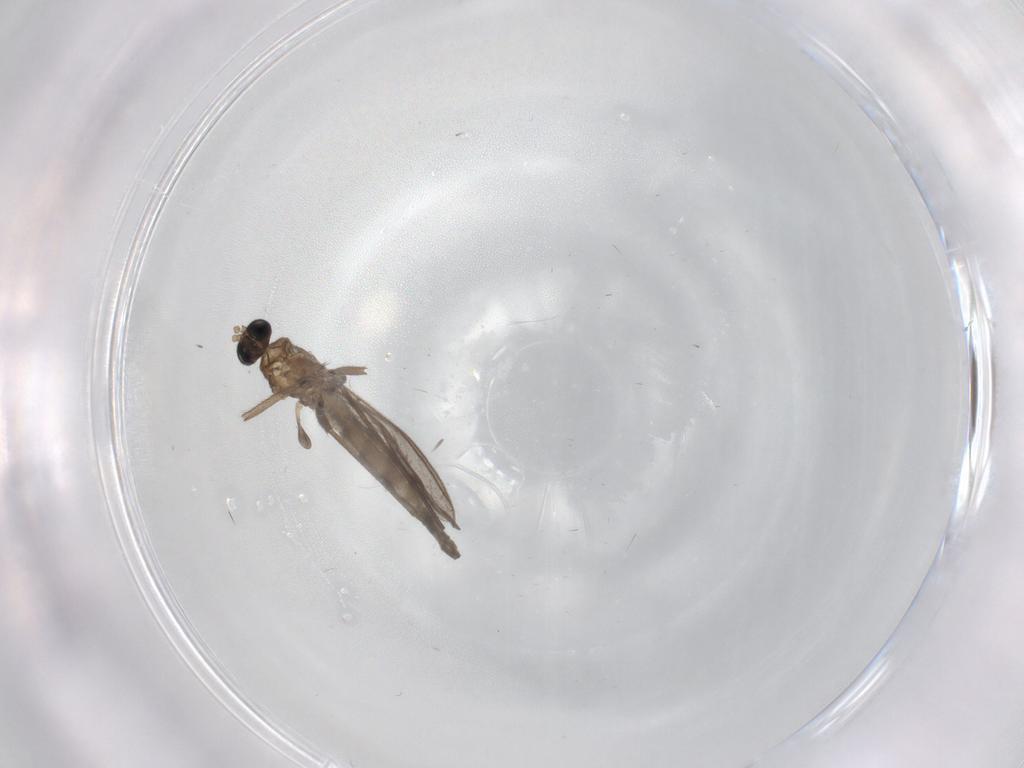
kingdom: Animalia
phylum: Arthropoda
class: Insecta
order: Diptera
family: Sciaridae
